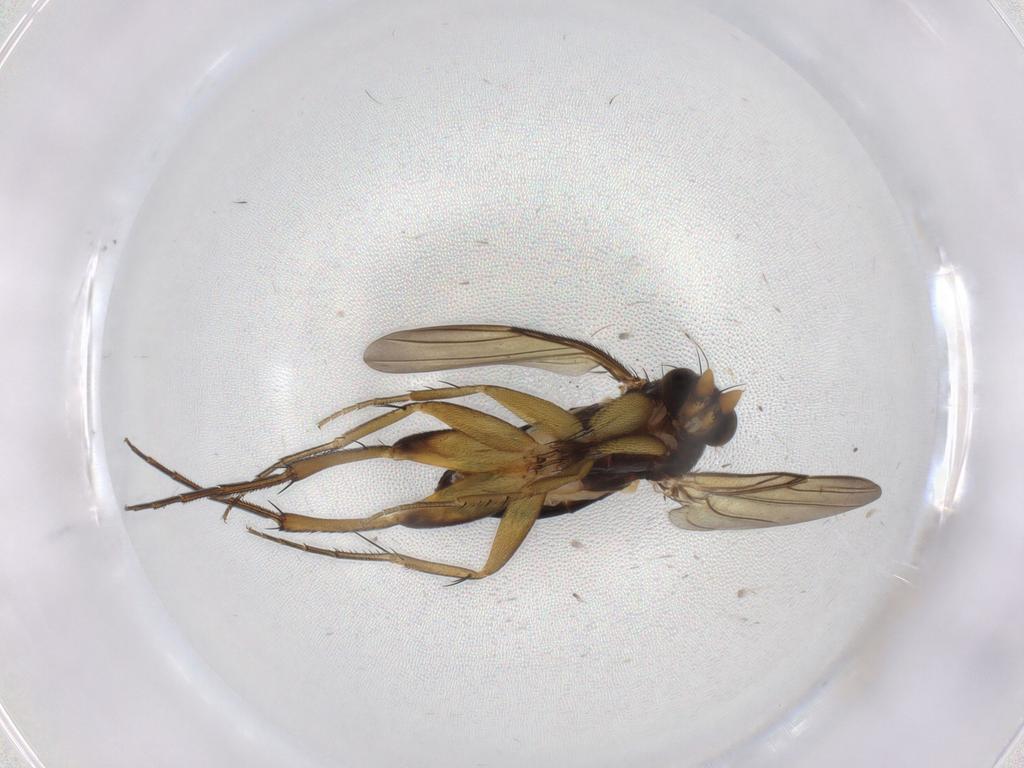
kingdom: Animalia
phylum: Arthropoda
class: Insecta
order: Diptera
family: Phoridae
